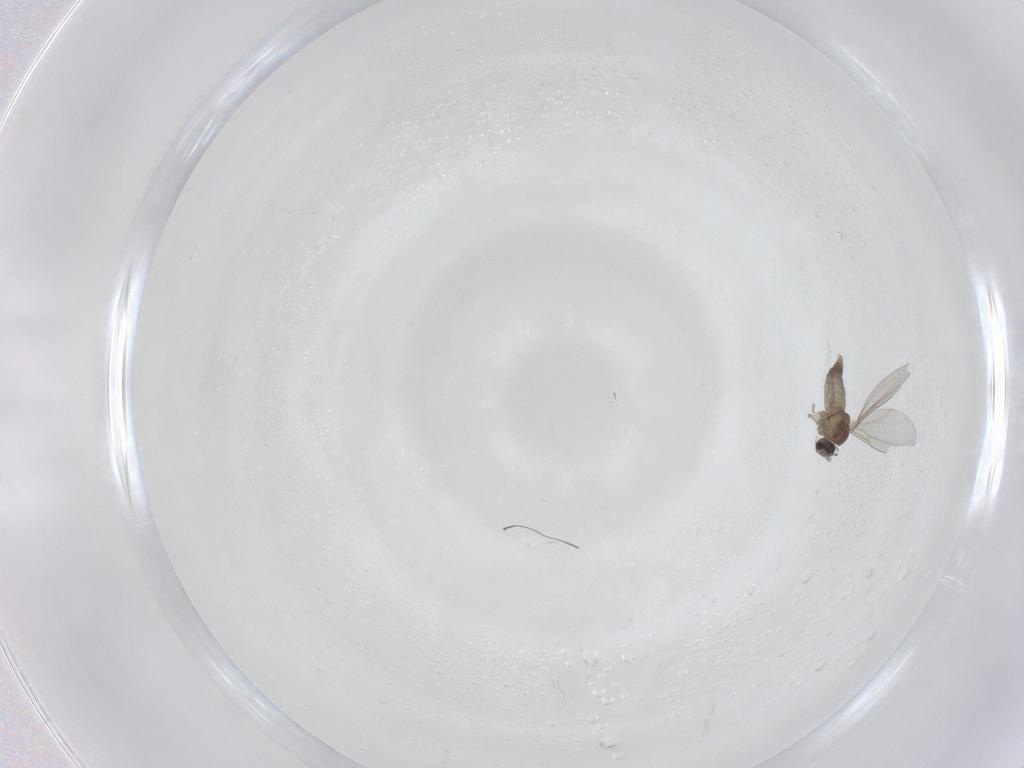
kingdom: Animalia
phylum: Arthropoda
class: Insecta
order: Diptera
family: Cecidomyiidae
